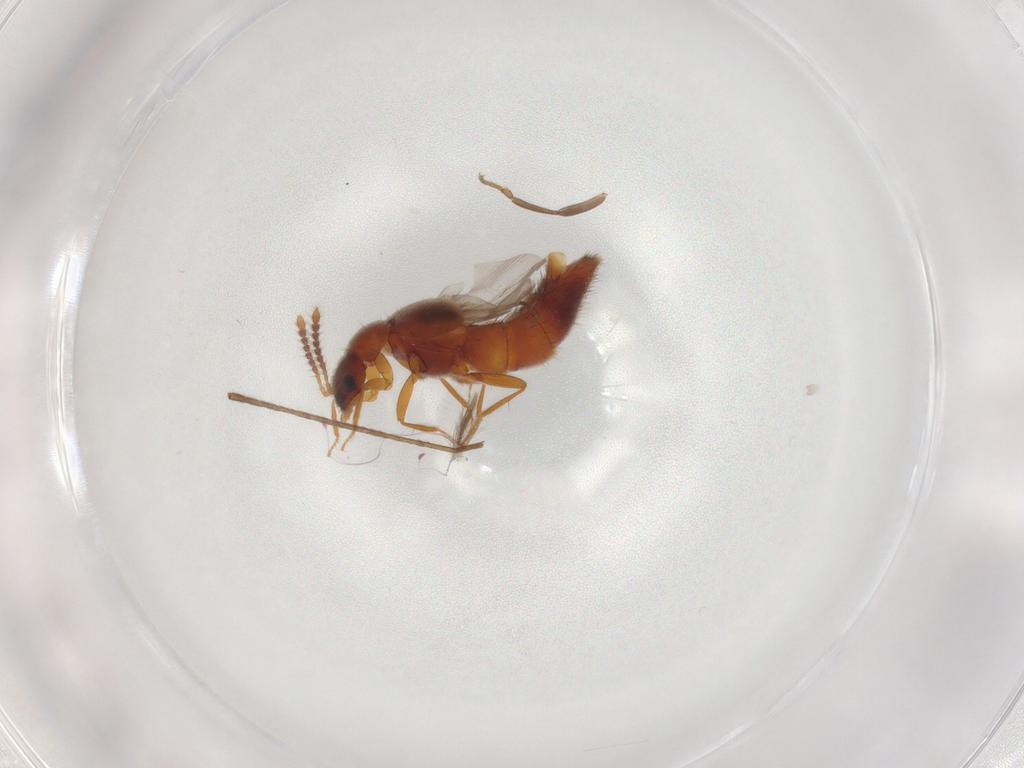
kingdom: Animalia
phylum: Arthropoda
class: Insecta
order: Coleoptera
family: Staphylinidae
